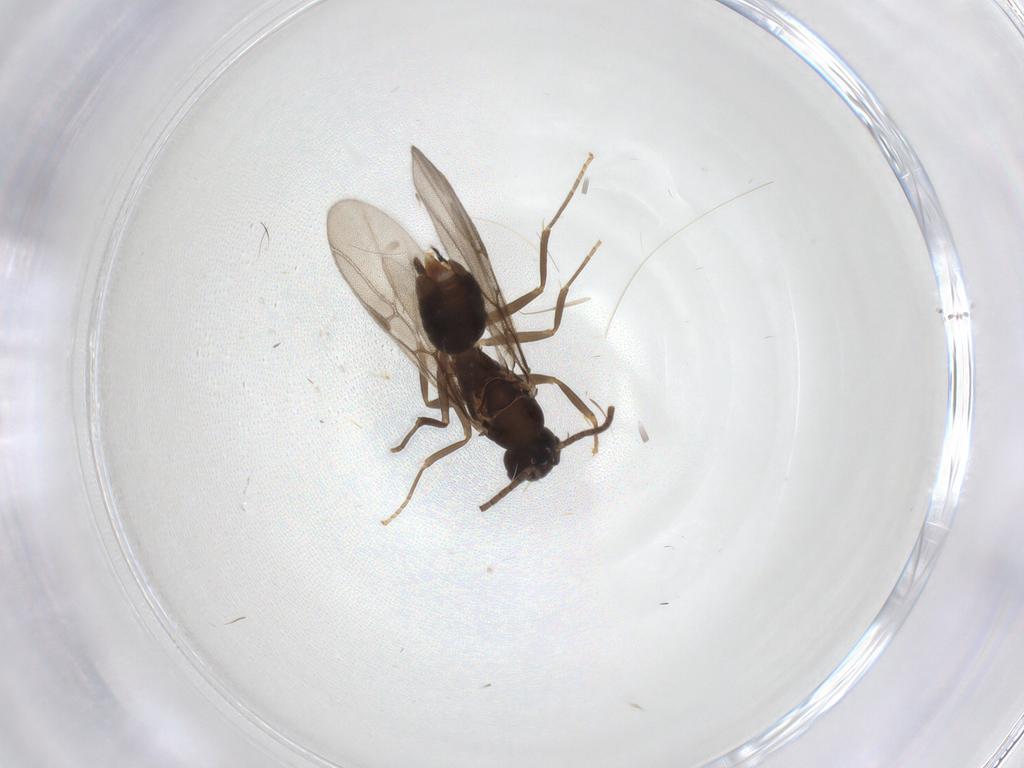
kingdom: Animalia
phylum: Arthropoda
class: Insecta
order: Hymenoptera
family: Formicidae
